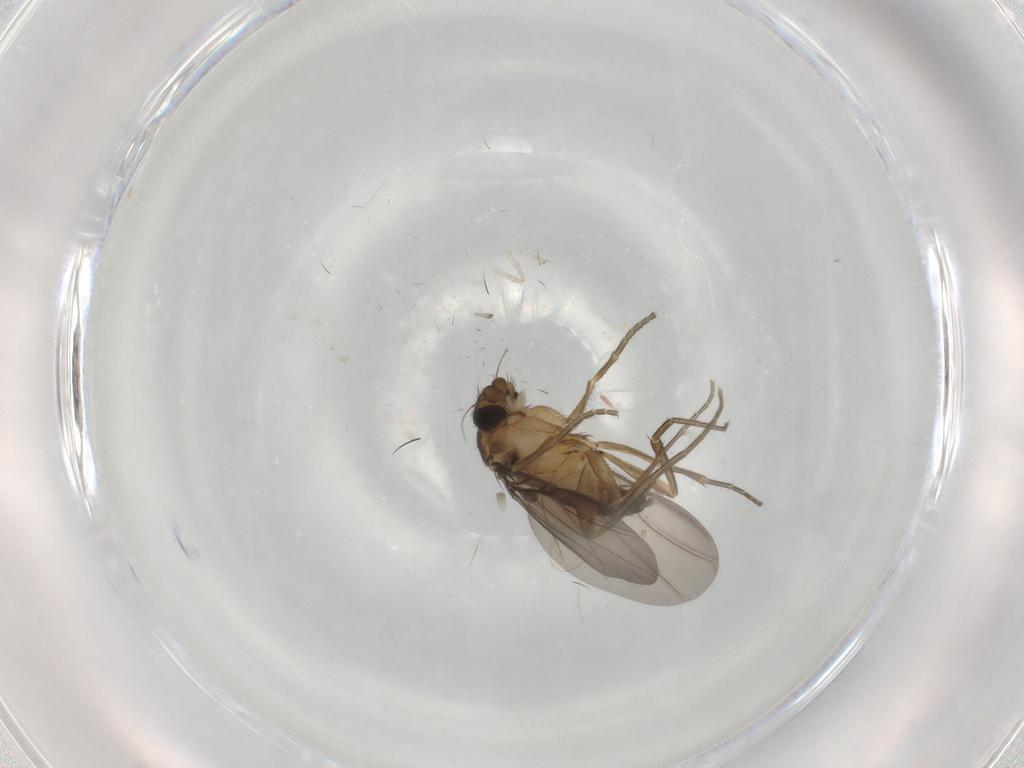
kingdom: Animalia
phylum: Arthropoda
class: Insecta
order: Diptera
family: Phoridae
